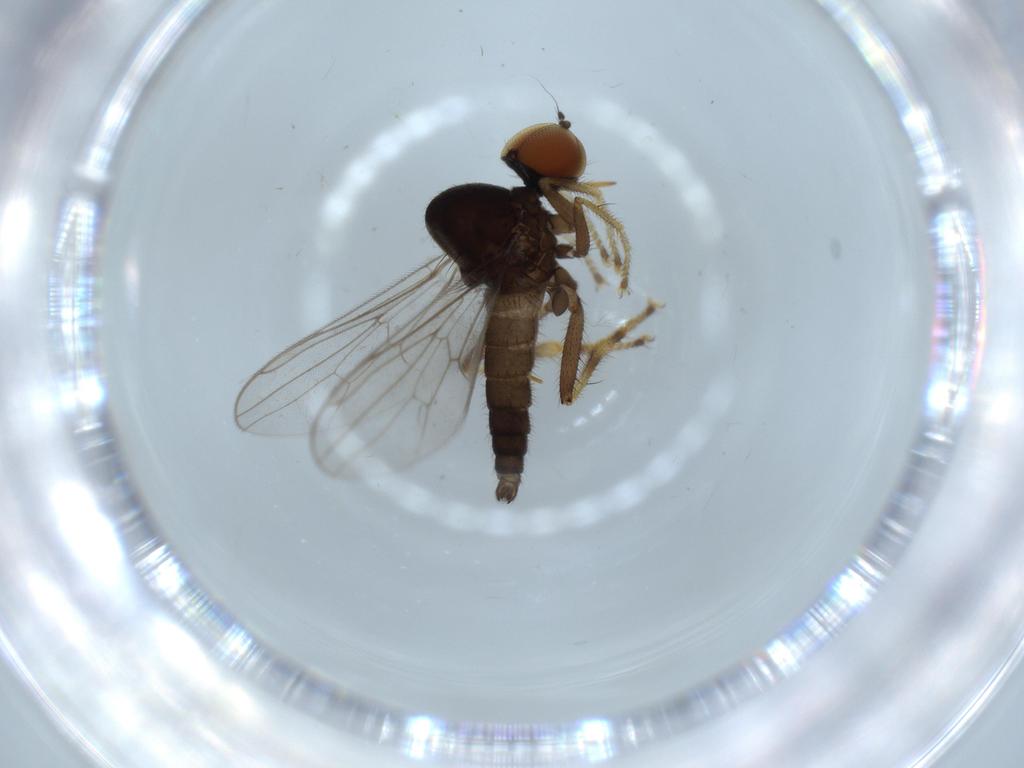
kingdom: Animalia
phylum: Arthropoda
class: Insecta
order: Diptera
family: Hybotidae
